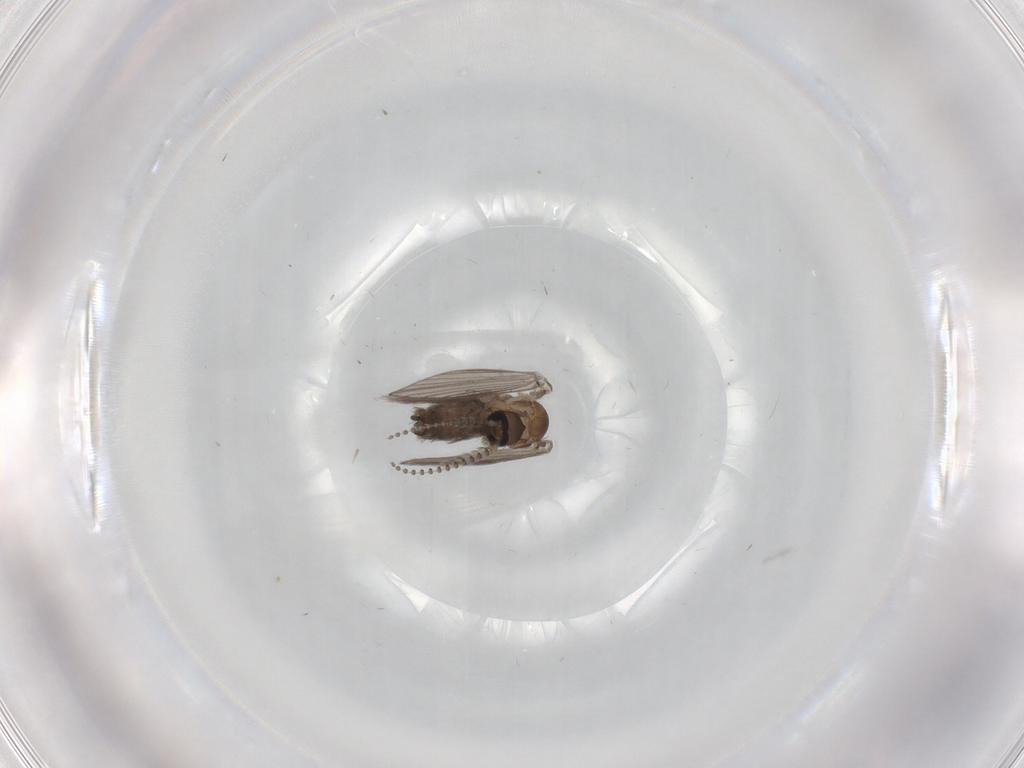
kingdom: Animalia
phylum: Arthropoda
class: Insecta
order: Diptera
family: Psychodidae
